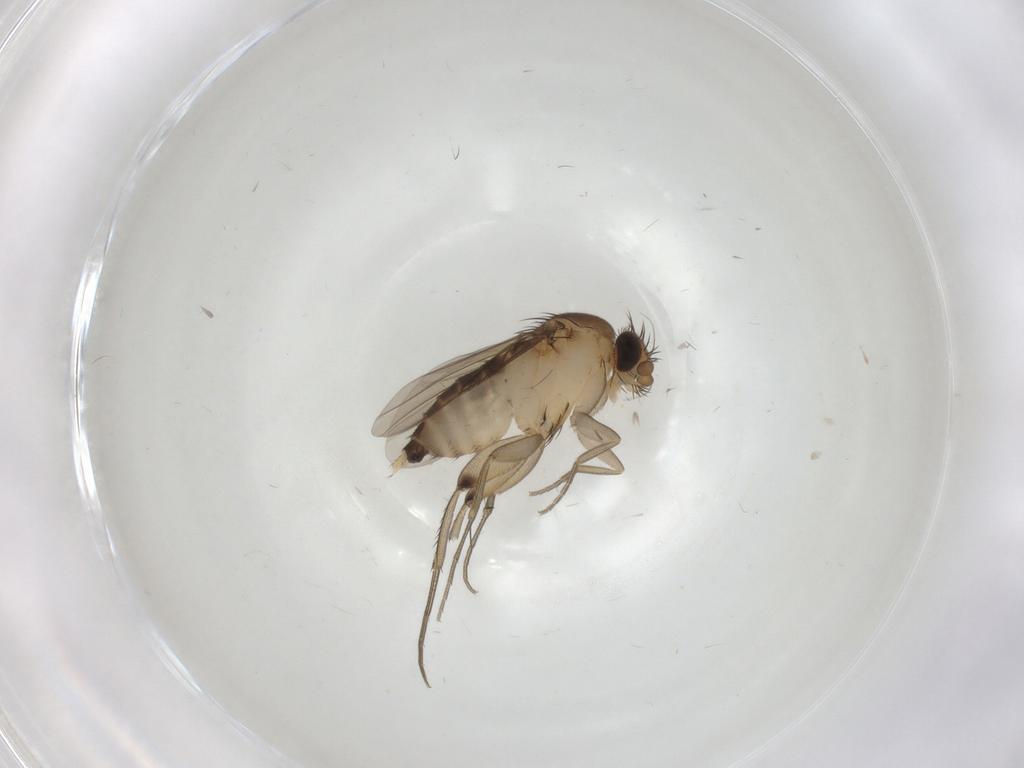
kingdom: Animalia
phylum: Arthropoda
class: Insecta
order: Diptera
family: Phoridae
